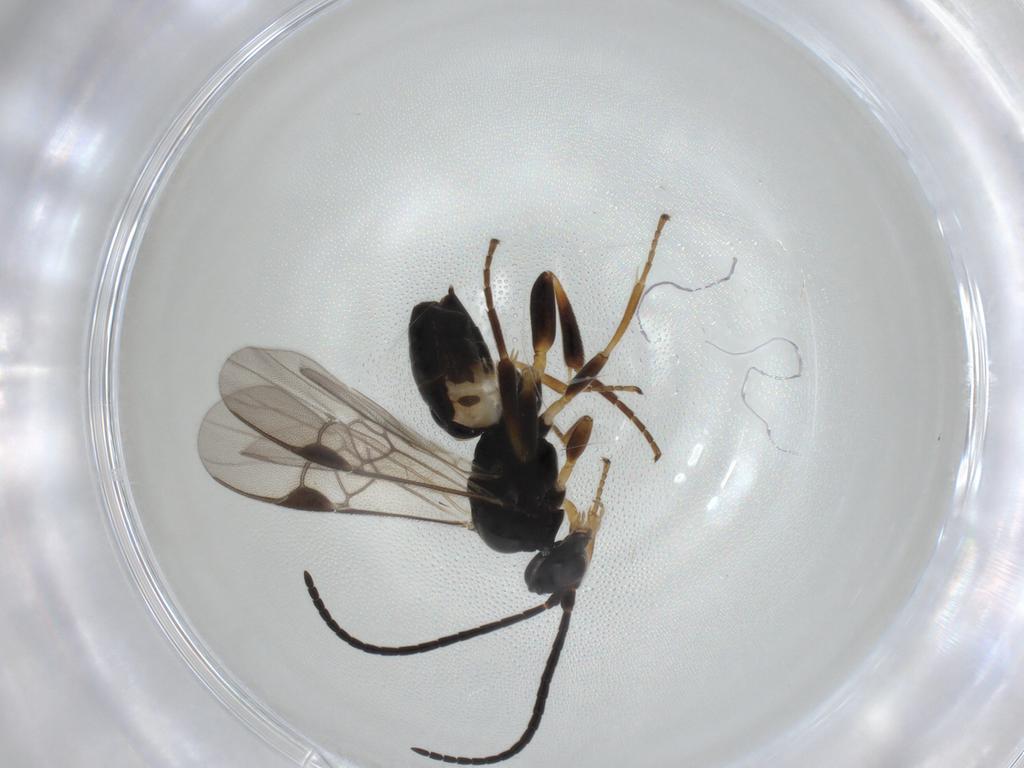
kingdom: Animalia
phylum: Arthropoda
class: Insecta
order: Hymenoptera
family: Braconidae
